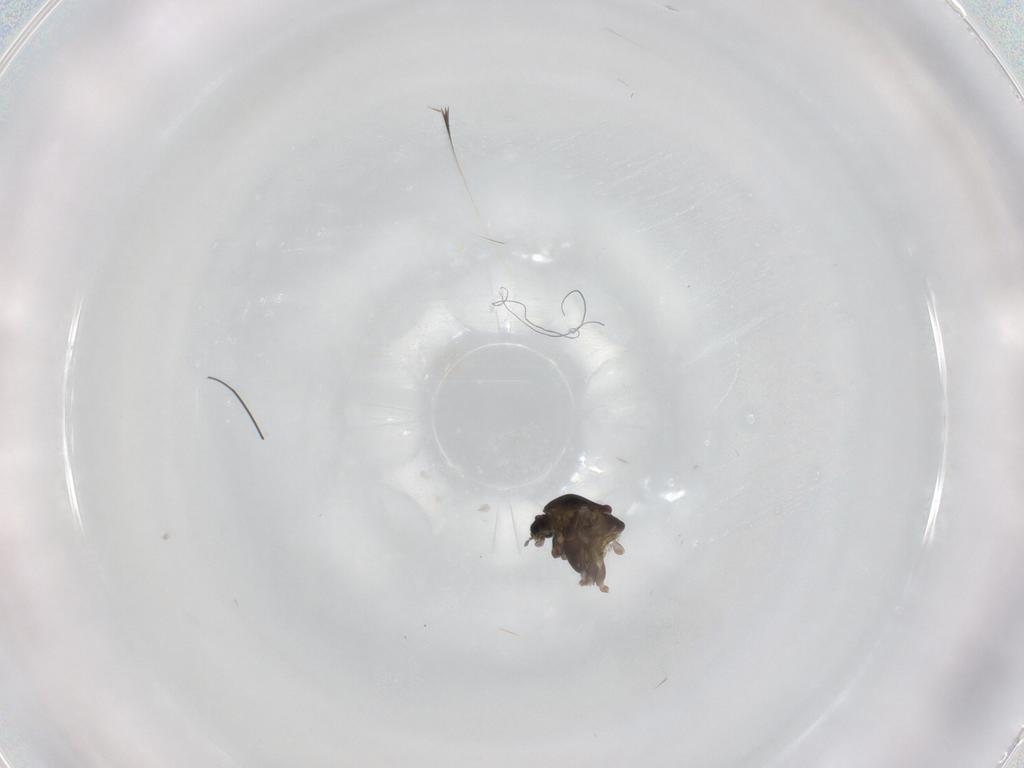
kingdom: Animalia
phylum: Arthropoda
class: Insecta
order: Diptera
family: Chironomidae
